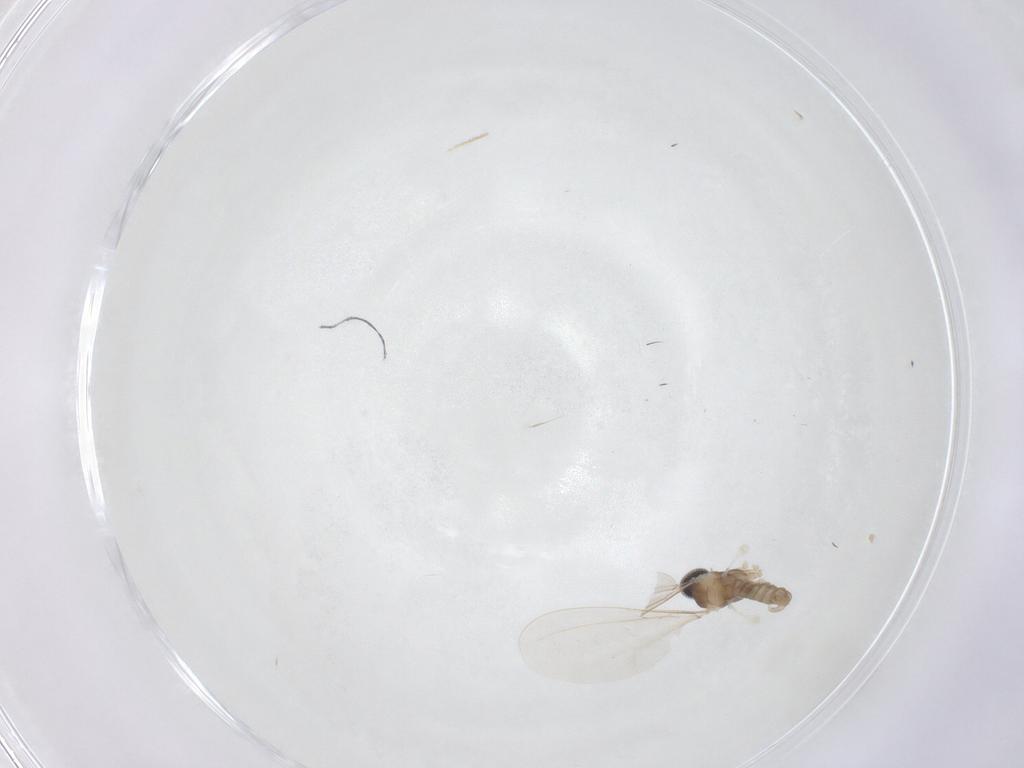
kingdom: Animalia
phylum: Arthropoda
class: Insecta
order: Diptera
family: Cecidomyiidae
